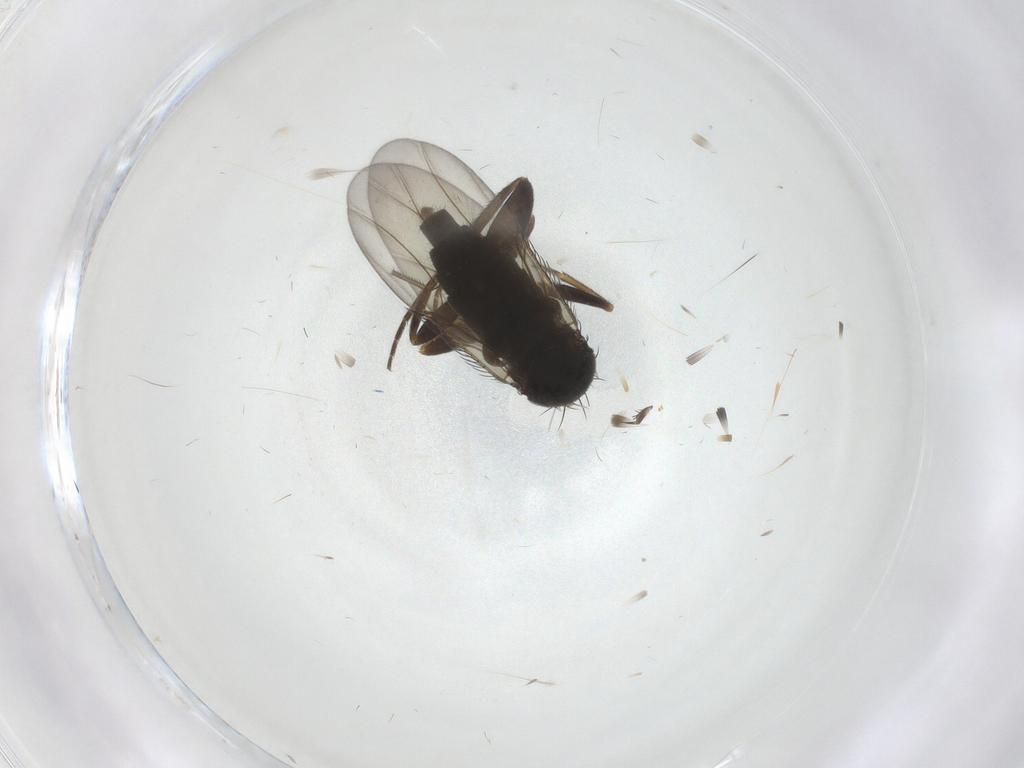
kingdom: Animalia
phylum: Arthropoda
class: Insecta
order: Diptera
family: Phoridae
